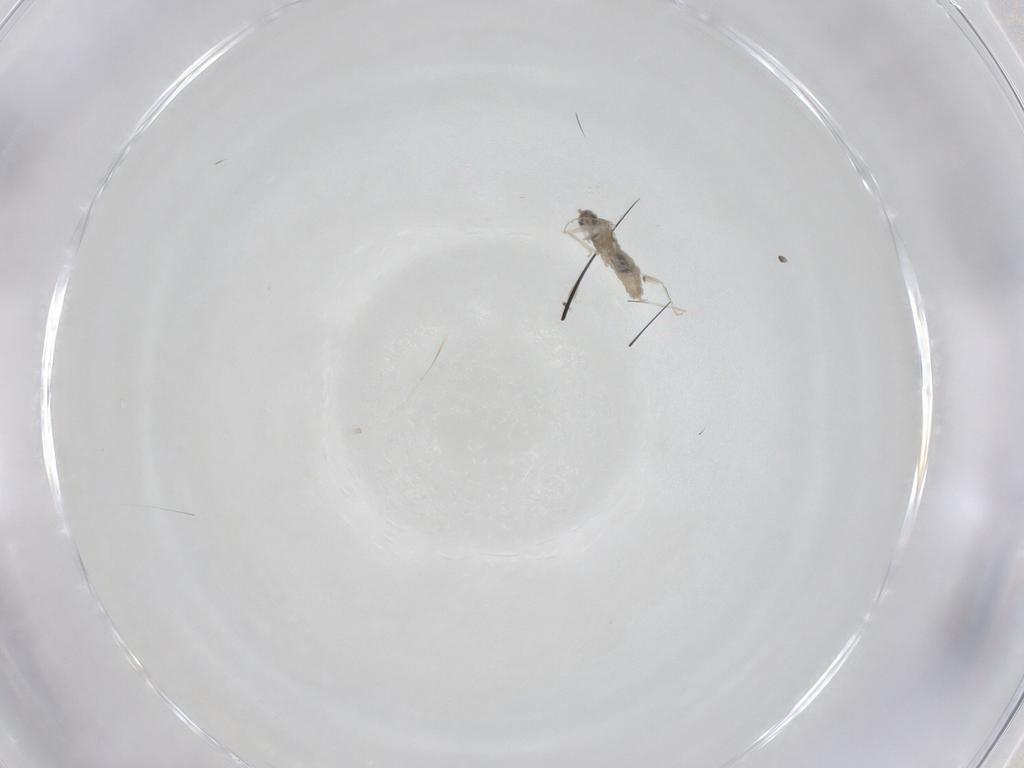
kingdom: Animalia
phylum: Arthropoda
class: Insecta
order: Diptera
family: Cecidomyiidae
